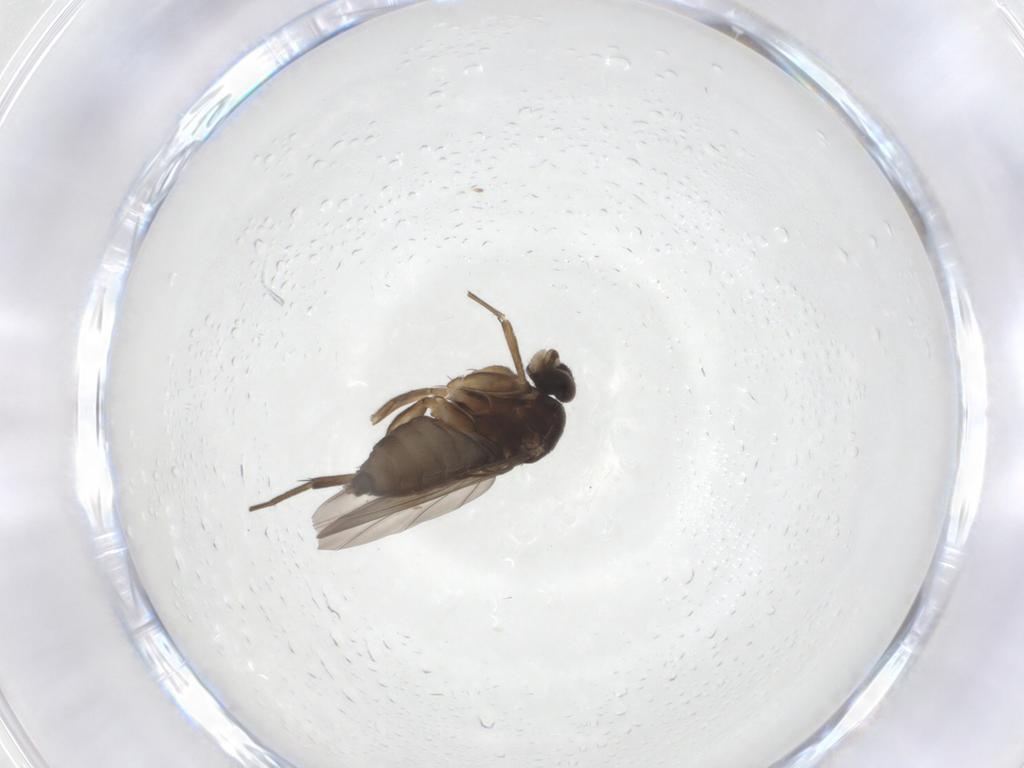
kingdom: Animalia
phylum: Arthropoda
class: Insecta
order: Diptera
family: Phoridae
